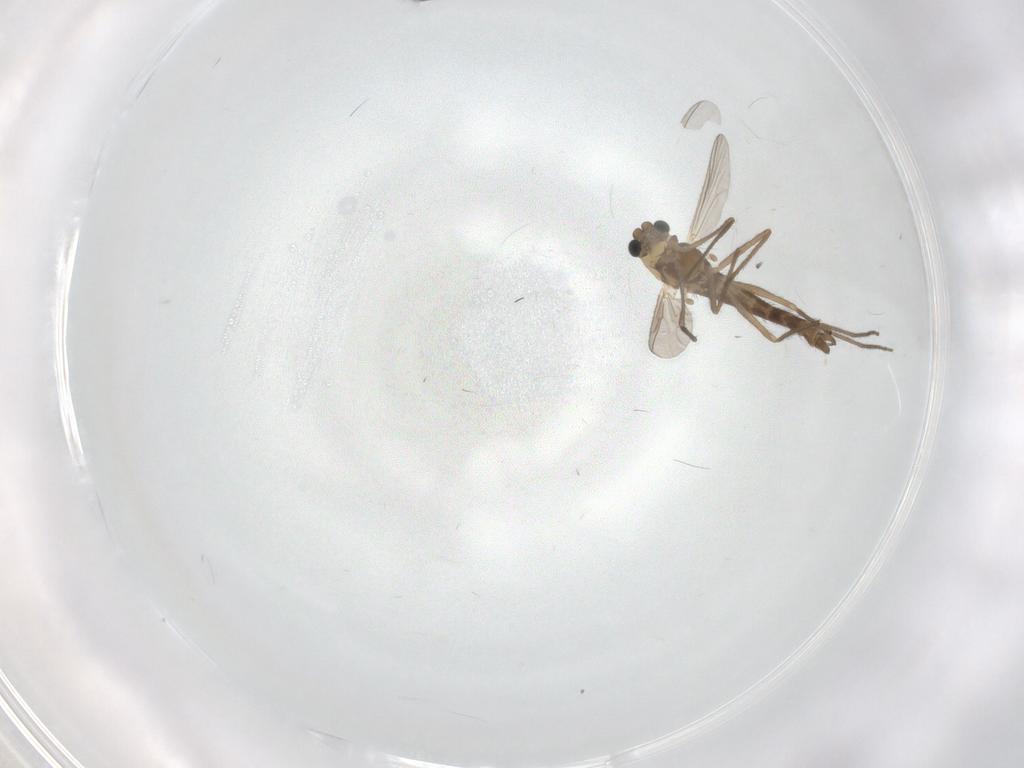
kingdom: Animalia
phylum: Arthropoda
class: Insecta
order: Diptera
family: Chironomidae
